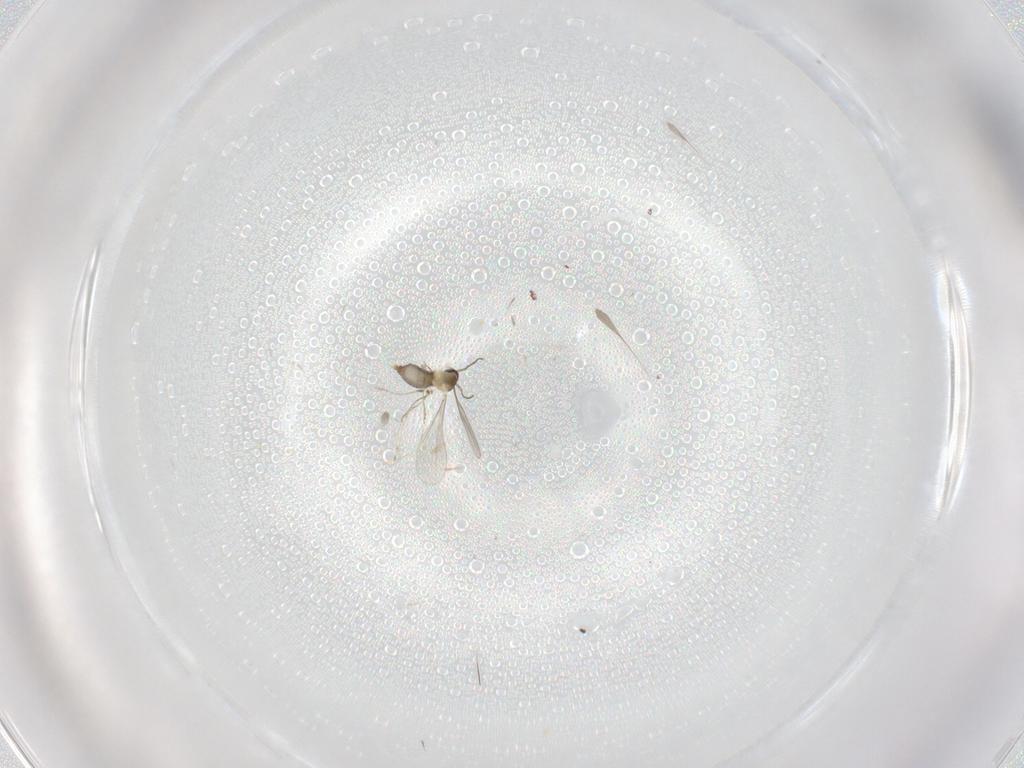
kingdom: Animalia
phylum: Arthropoda
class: Insecta
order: Diptera
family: Ceratopogonidae
